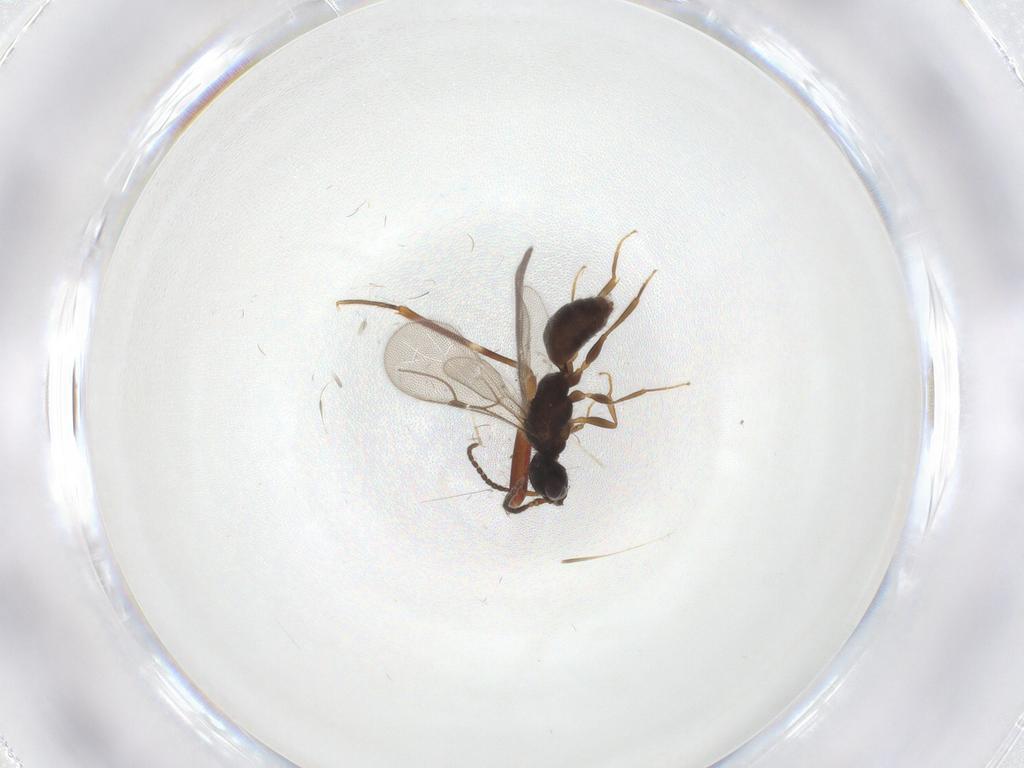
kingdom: Animalia
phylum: Arthropoda
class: Insecta
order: Hymenoptera
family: Bethylidae
